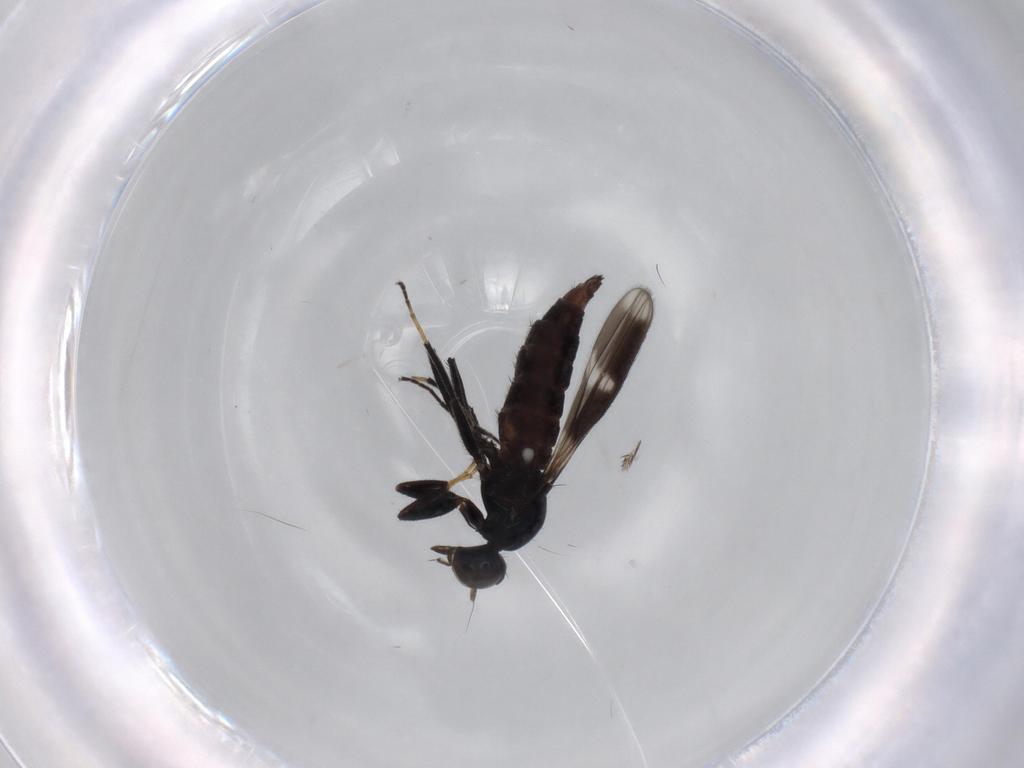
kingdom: Animalia
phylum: Arthropoda
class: Insecta
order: Diptera
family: Hybotidae
